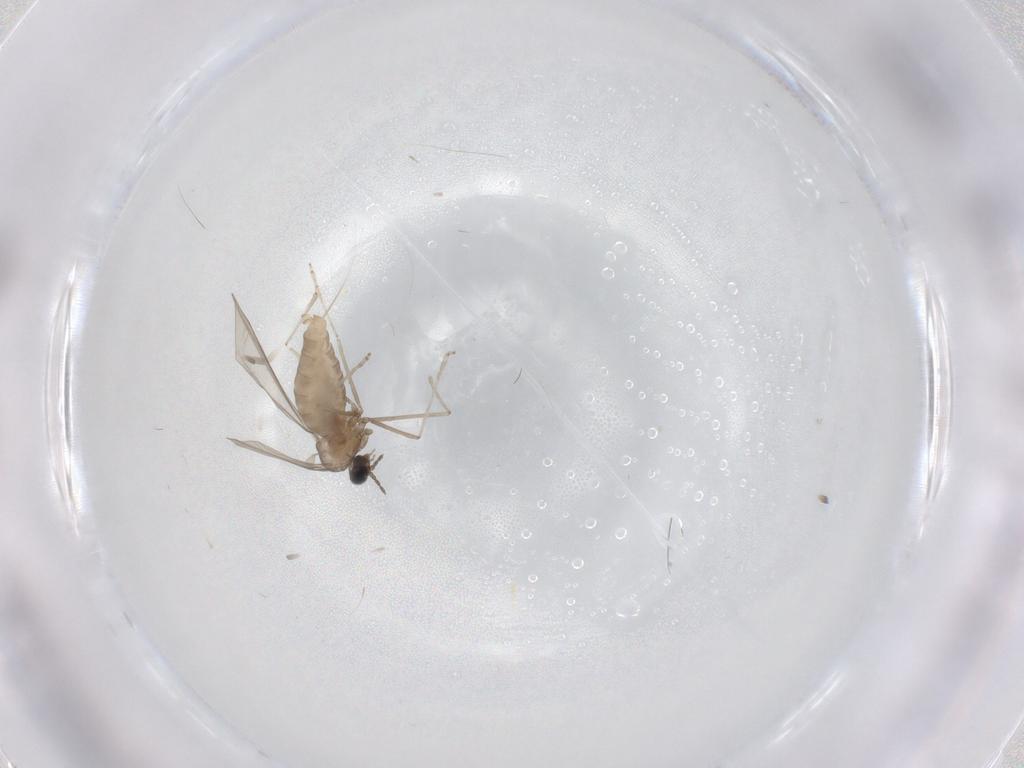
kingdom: Animalia
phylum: Arthropoda
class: Insecta
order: Diptera
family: Cecidomyiidae
